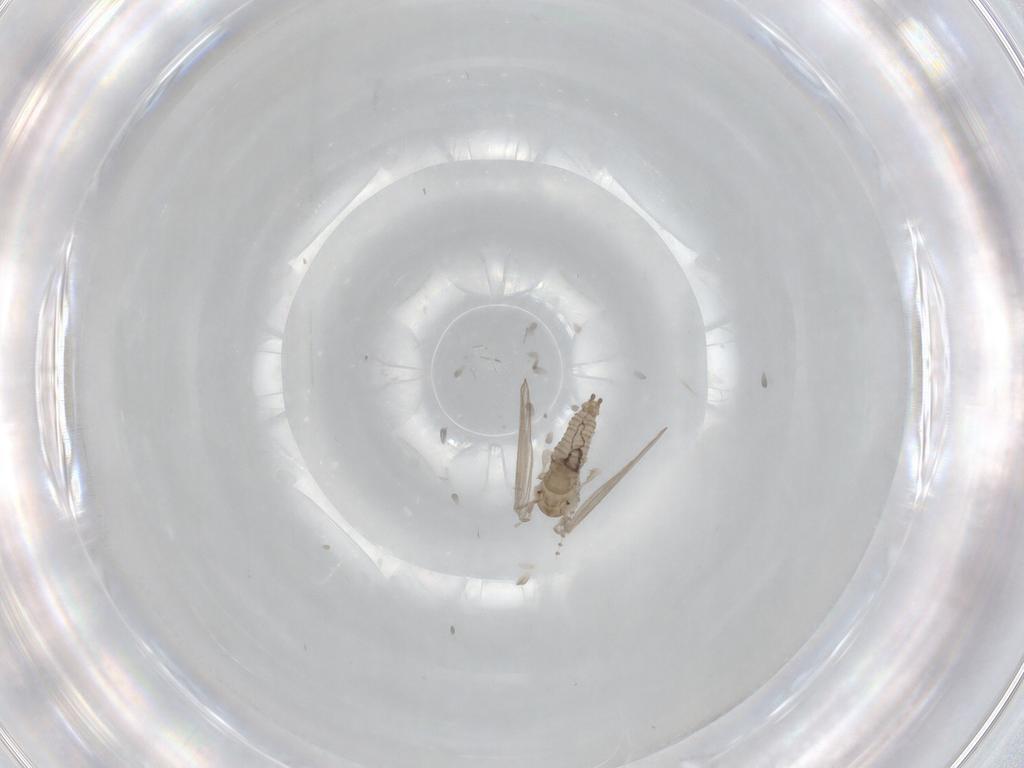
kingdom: Animalia
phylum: Arthropoda
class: Insecta
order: Diptera
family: Psychodidae
